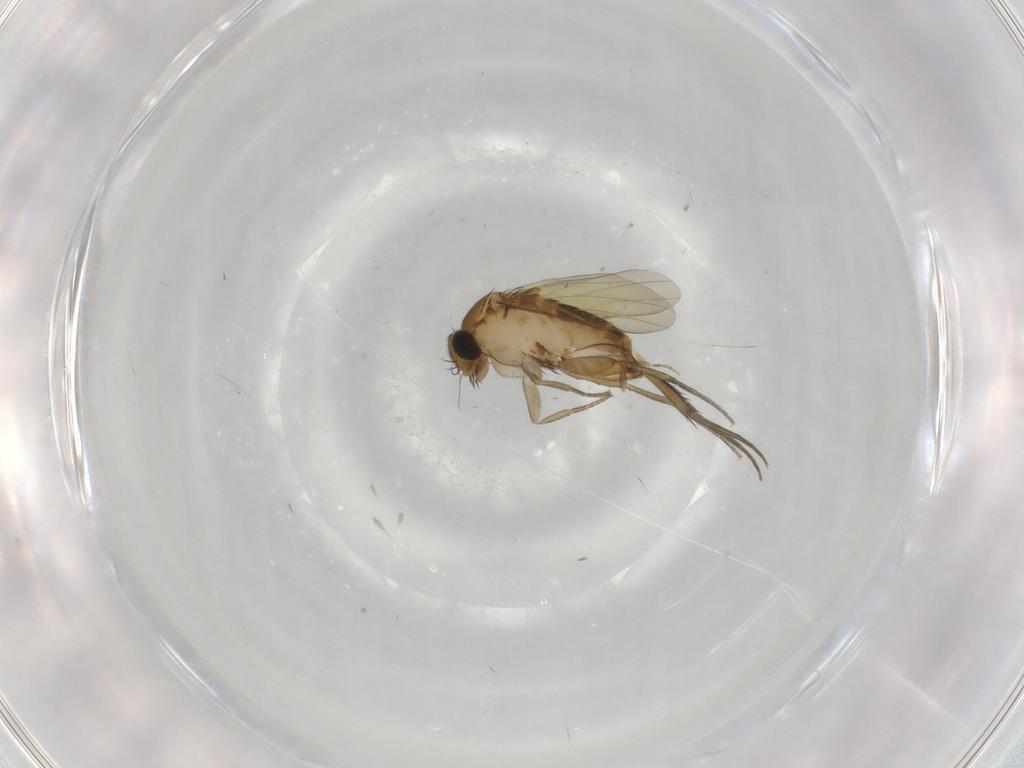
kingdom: Animalia
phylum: Arthropoda
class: Insecta
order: Diptera
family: Phoridae
